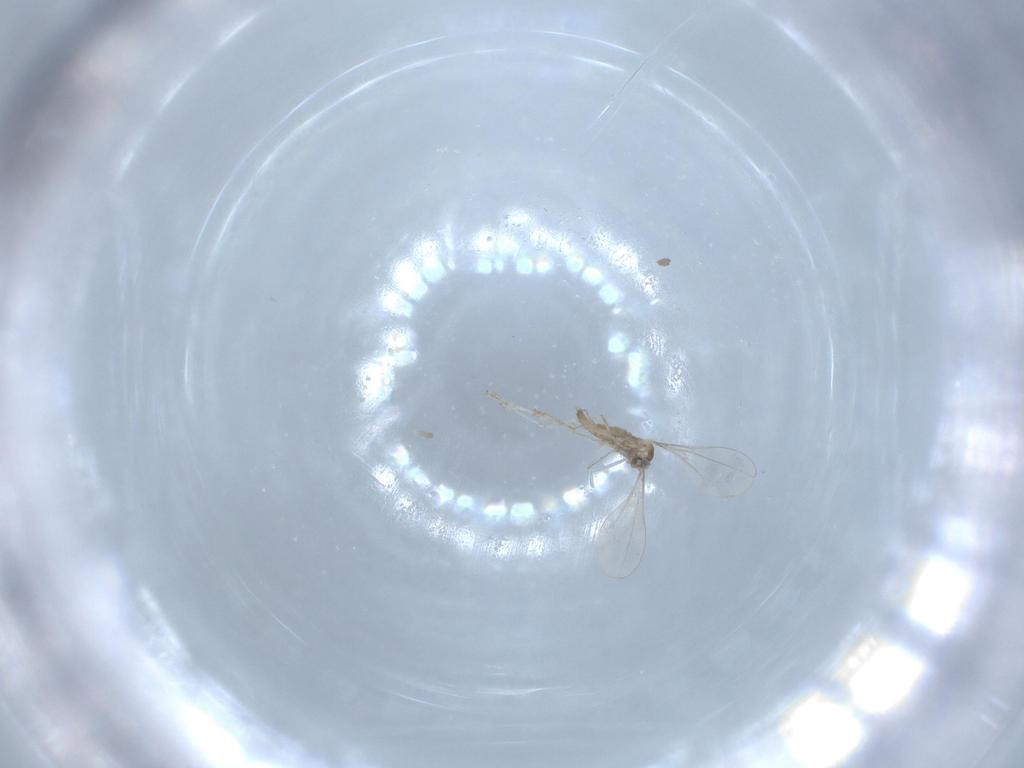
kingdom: Animalia
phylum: Arthropoda
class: Insecta
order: Diptera
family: Cecidomyiidae
